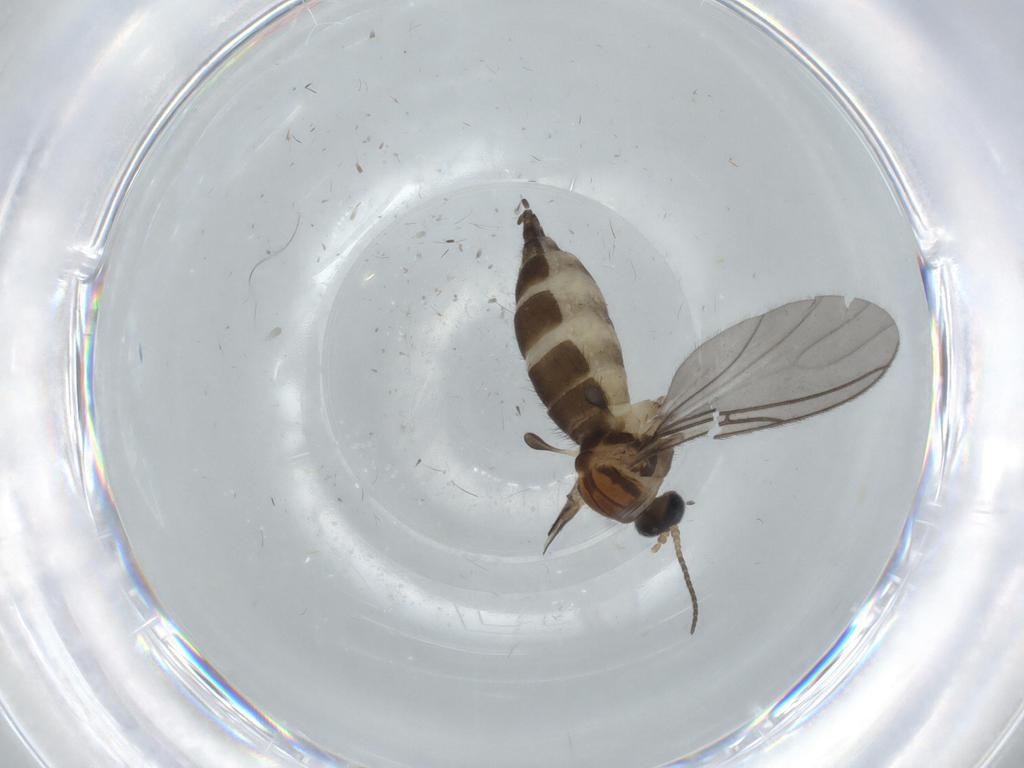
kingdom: Animalia
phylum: Arthropoda
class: Insecta
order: Diptera
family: Sciaridae
